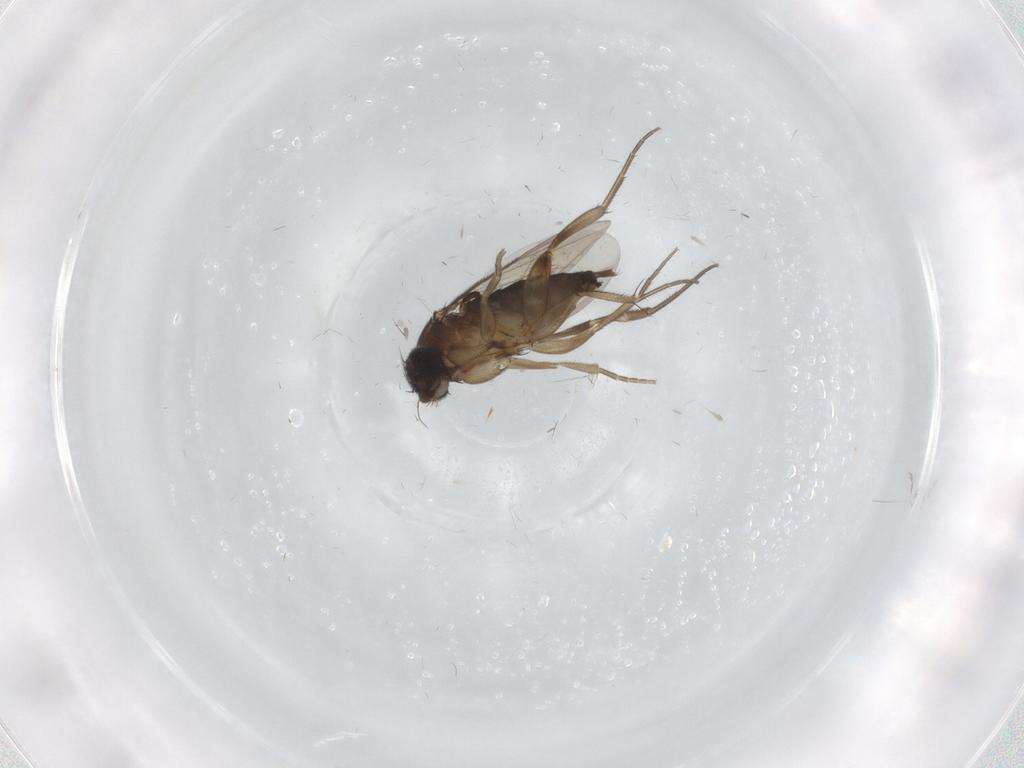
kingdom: Animalia
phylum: Arthropoda
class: Insecta
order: Diptera
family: Phoridae
